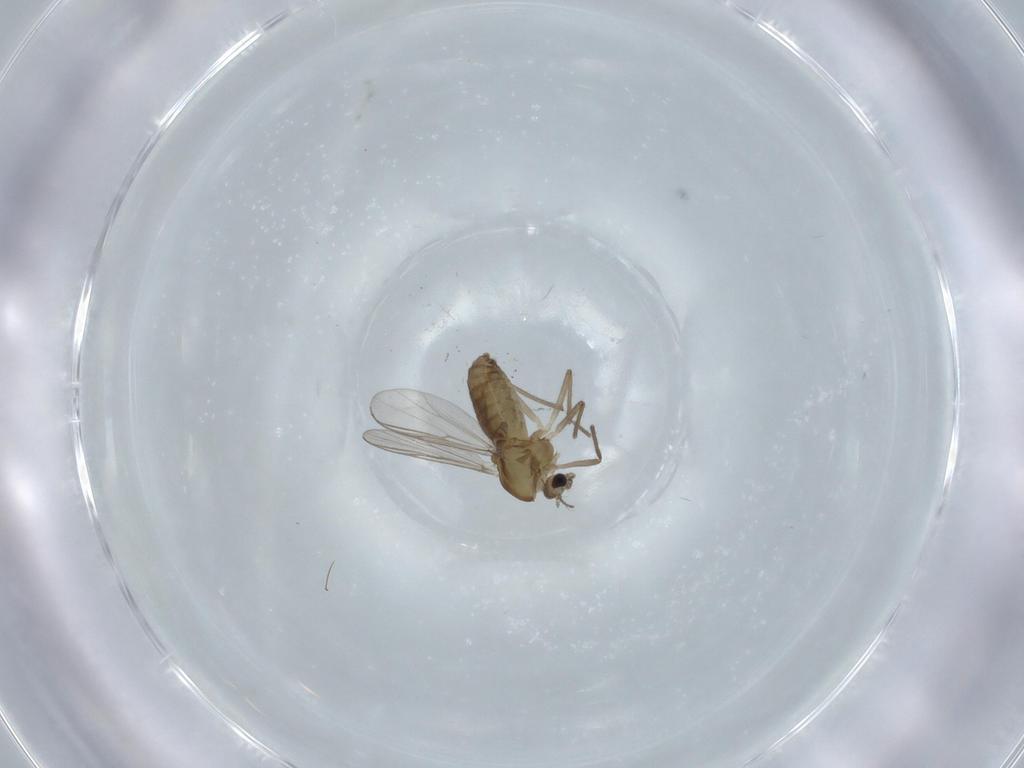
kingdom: Animalia
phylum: Arthropoda
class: Insecta
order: Diptera
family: Chironomidae
